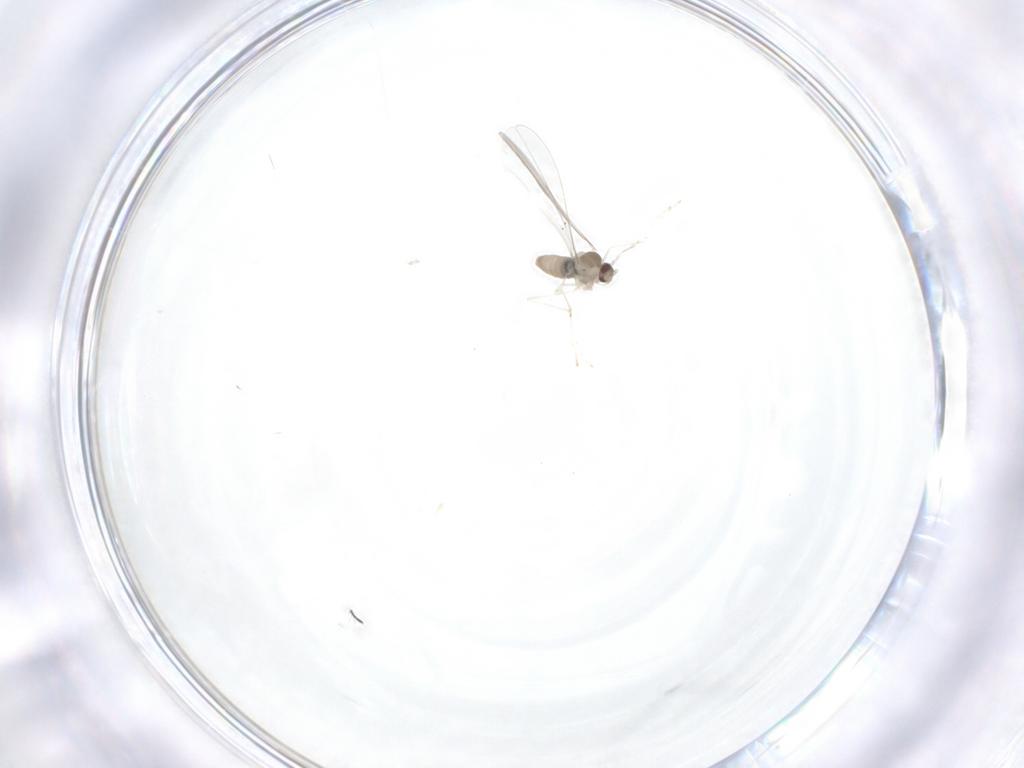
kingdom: Animalia
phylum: Arthropoda
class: Insecta
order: Diptera
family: Cecidomyiidae
